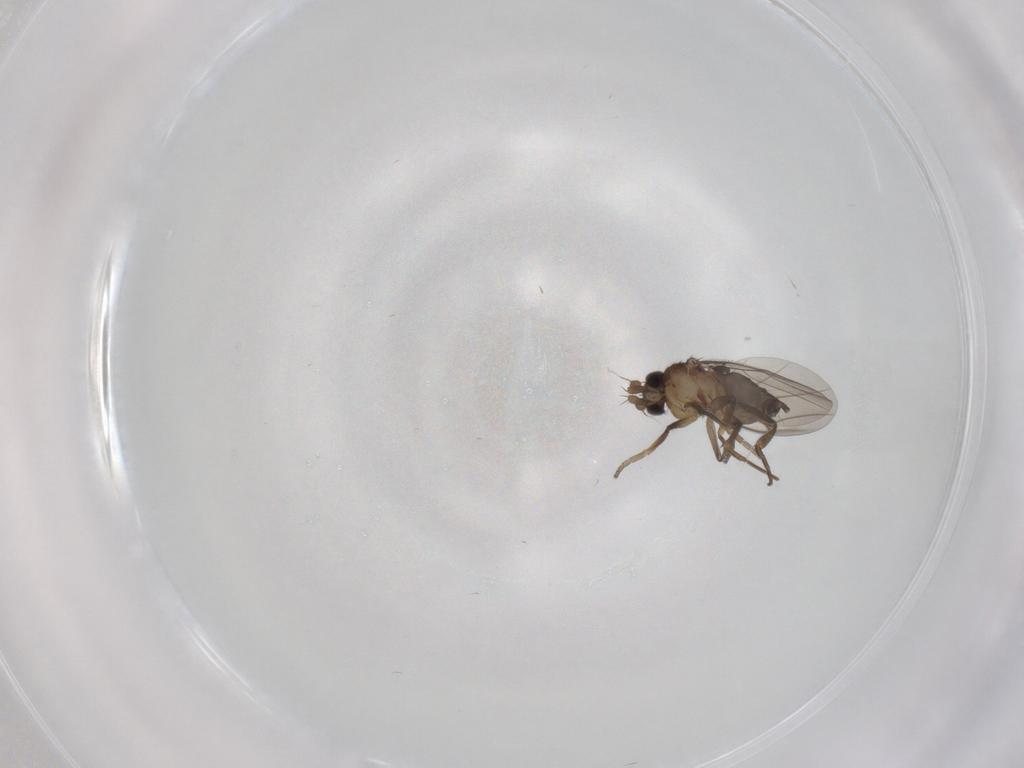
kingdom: Animalia
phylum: Arthropoda
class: Insecta
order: Diptera
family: Phoridae
